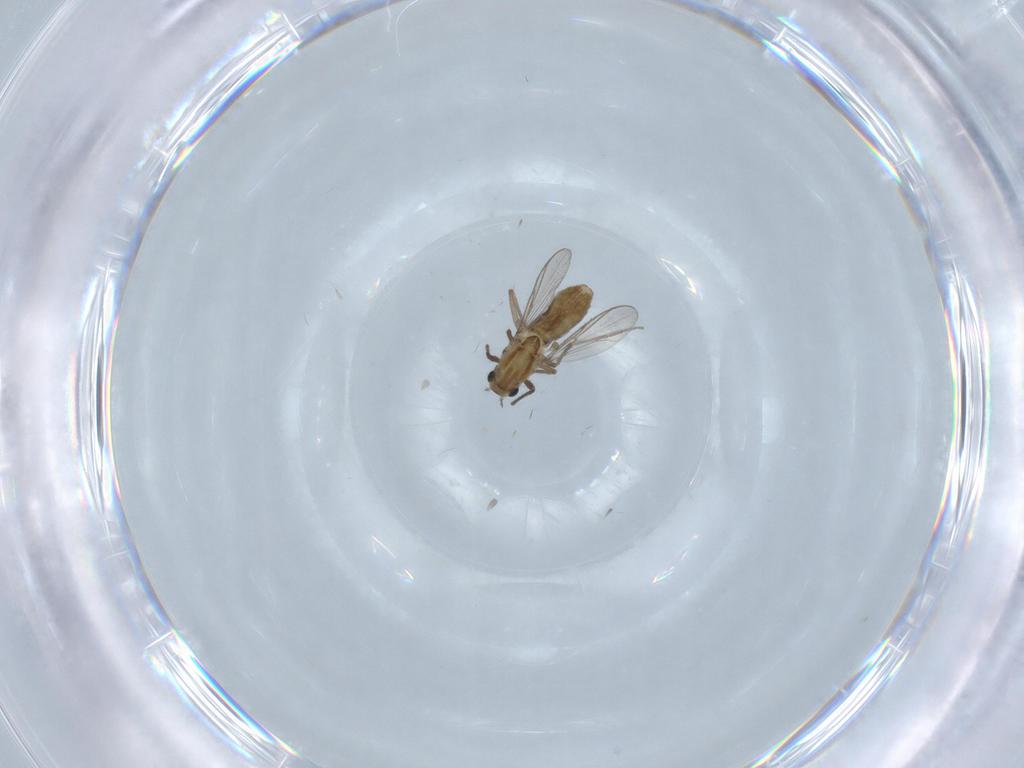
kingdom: Animalia
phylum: Arthropoda
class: Insecta
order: Diptera
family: Chironomidae
